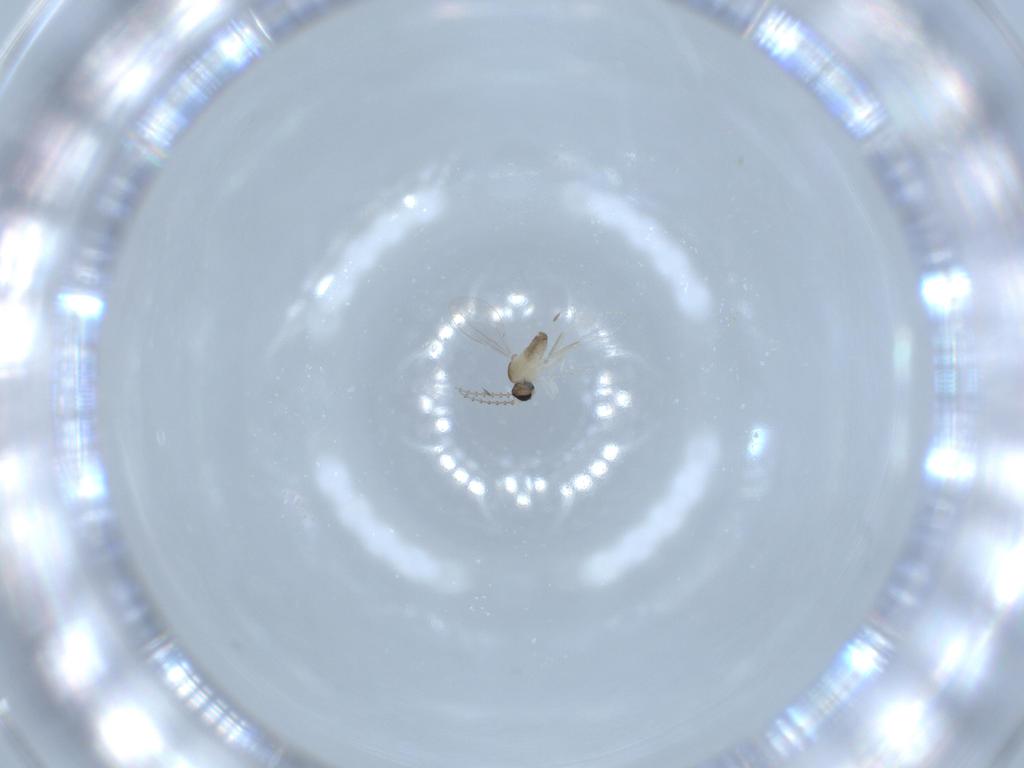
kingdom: Animalia
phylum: Arthropoda
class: Insecta
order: Diptera
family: Cecidomyiidae
